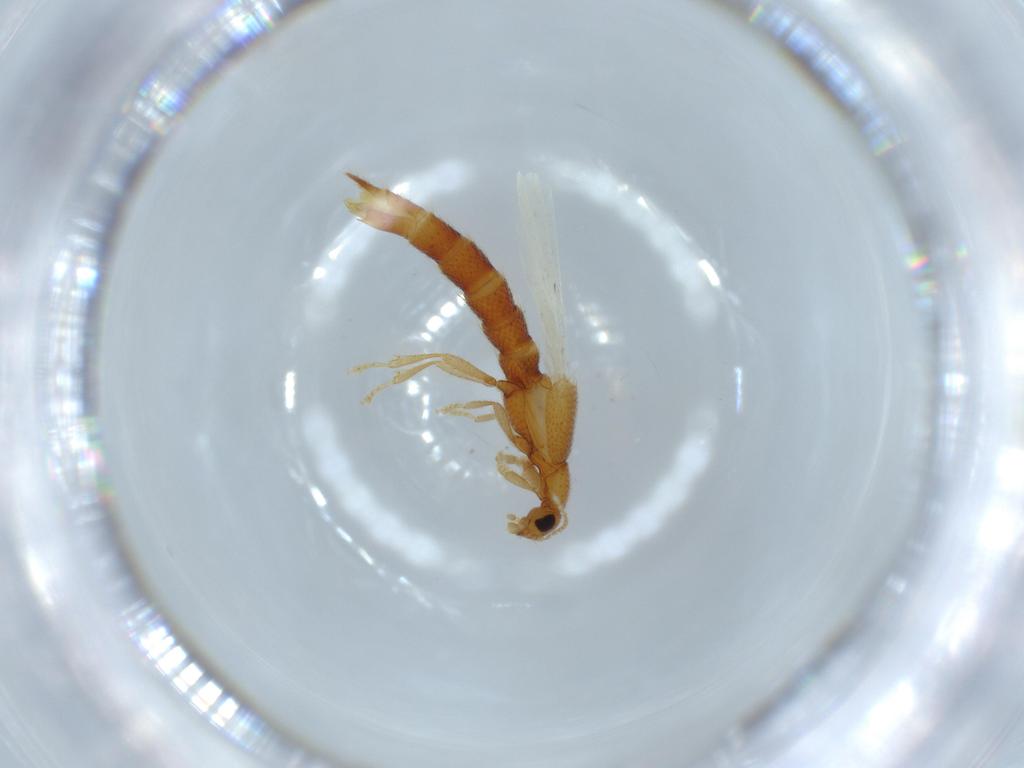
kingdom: Animalia
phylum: Arthropoda
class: Insecta
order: Coleoptera
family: Staphylinidae
